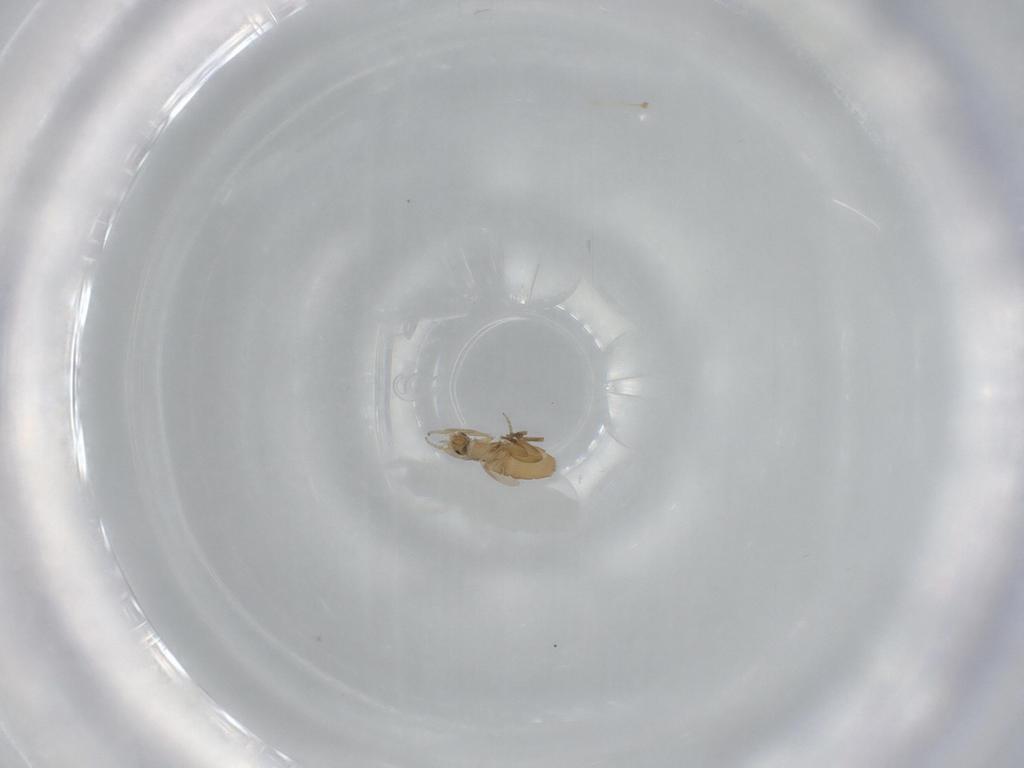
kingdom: Animalia
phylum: Arthropoda
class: Insecta
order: Diptera
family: Phoridae
